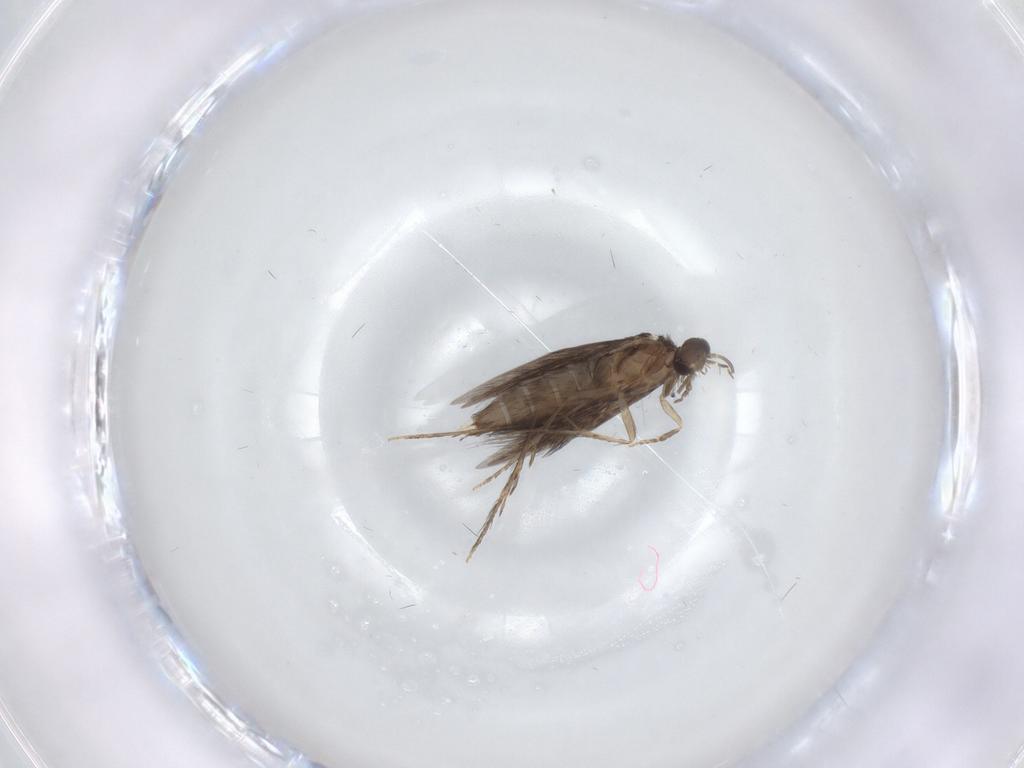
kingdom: Animalia
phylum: Arthropoda
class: Insecta
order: Trichoptera
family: Hydroptilidae
